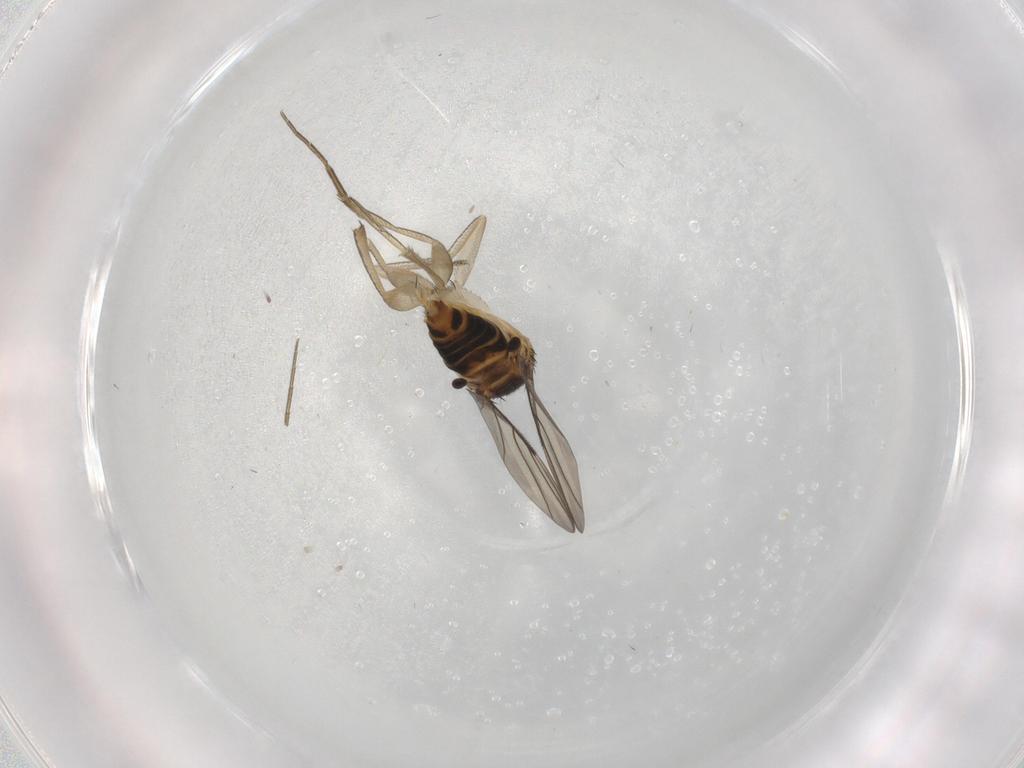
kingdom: Animalia
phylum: Arthropoda
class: Insecta
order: Diptera
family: Phoridae
